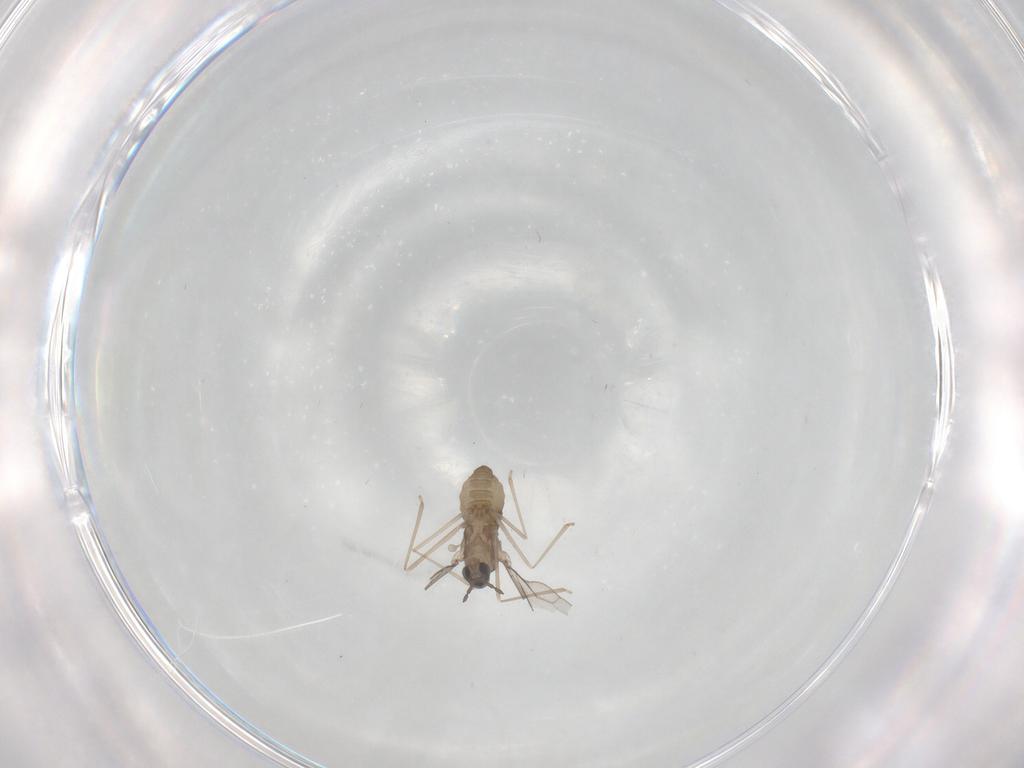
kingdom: Animalia
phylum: Arthropoda
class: Insecta
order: Diptera
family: Cecidomyiidae
